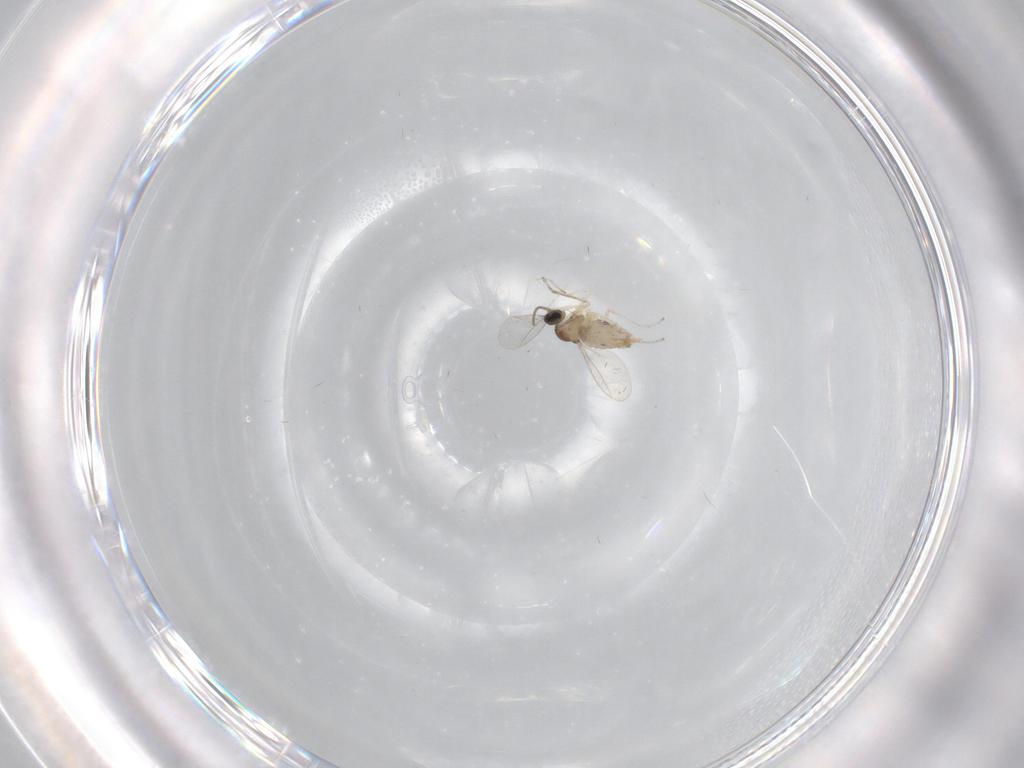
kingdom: Animalia
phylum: Arthropoda
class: Insecta
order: Diptera
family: Cecidomyiidae
